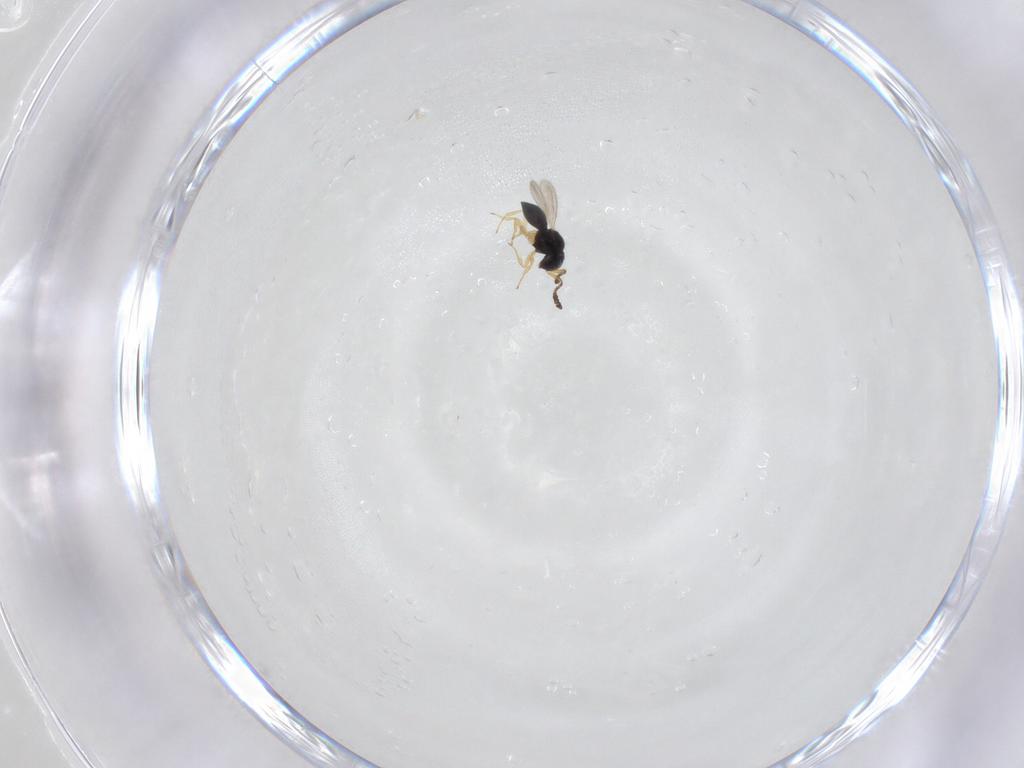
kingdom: Animalia
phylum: Arthropoda
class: Insecta
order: Hymenoptera
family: Scelionidae
